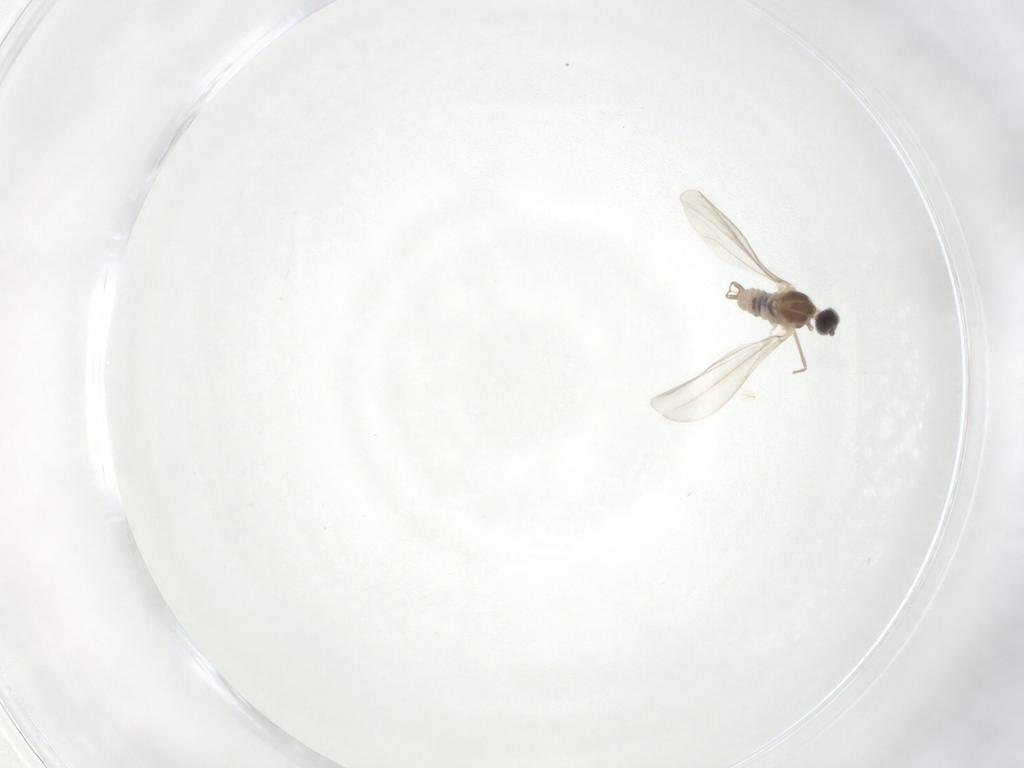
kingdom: Animalia
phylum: Arthropoda
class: Insecta
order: Diptera
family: Cecidomyiidae
